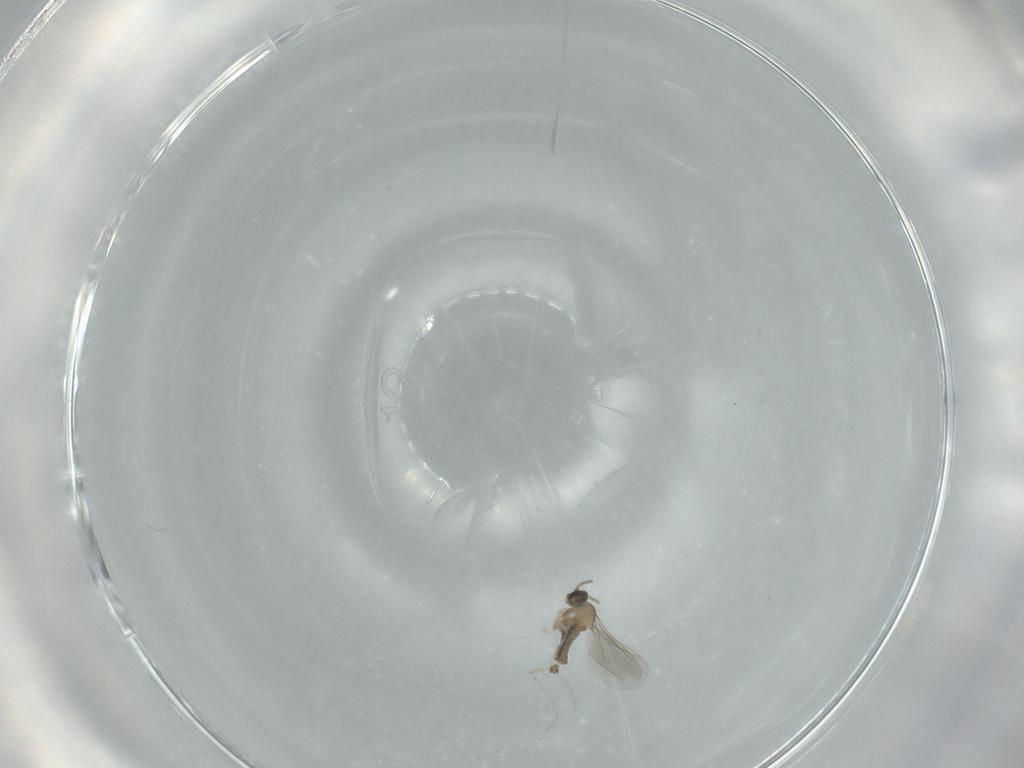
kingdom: Animalia
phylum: Arthropoda
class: Insecta
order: Diptera
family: Cecidomyiidae
